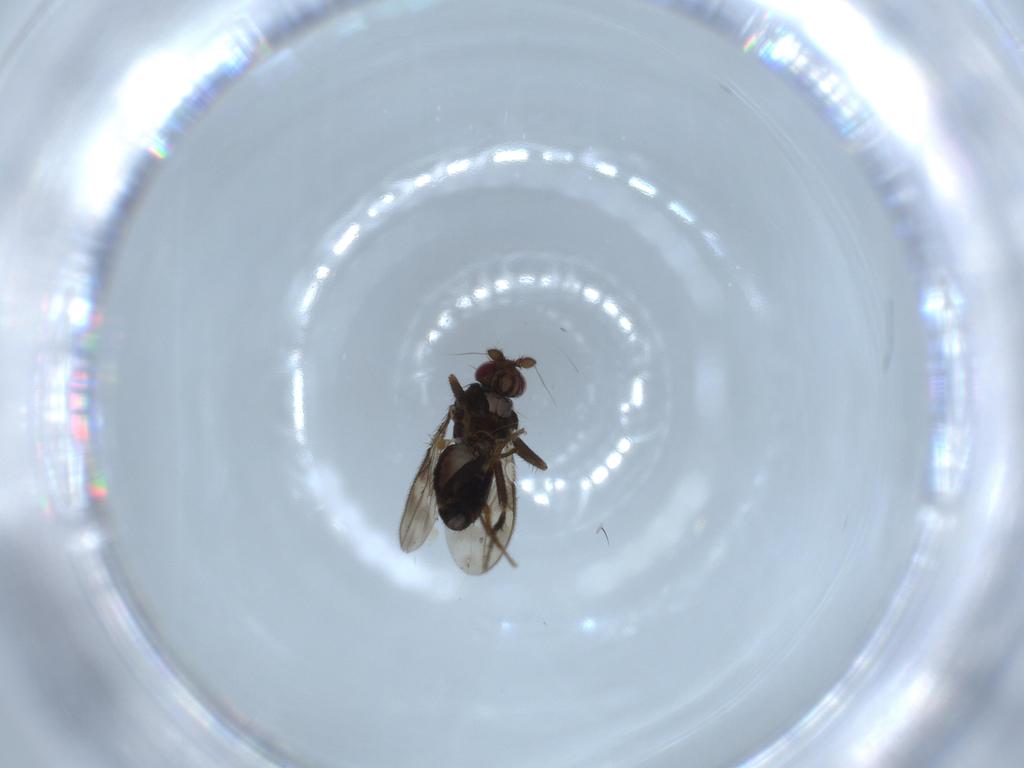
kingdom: Animalia
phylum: Arthropoda
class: Insecta
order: Diptera
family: Sphaeroceridae
